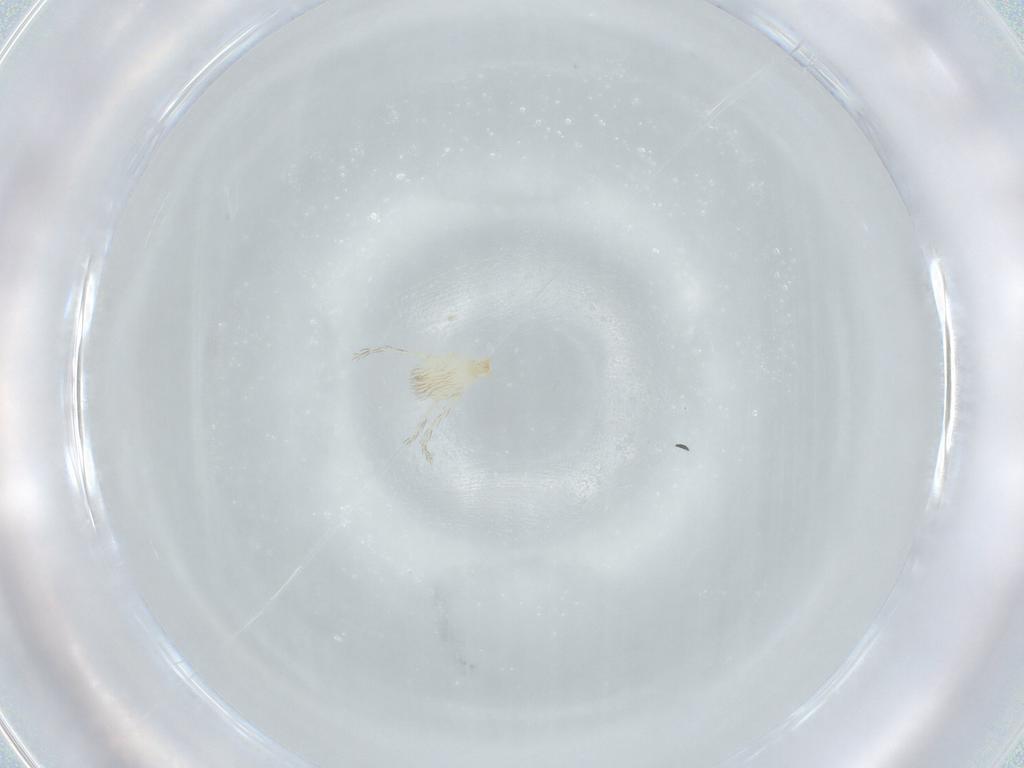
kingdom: Animalia
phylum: Arthropoda
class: Arachnida
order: Trombidiformes
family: Erythraeidae
